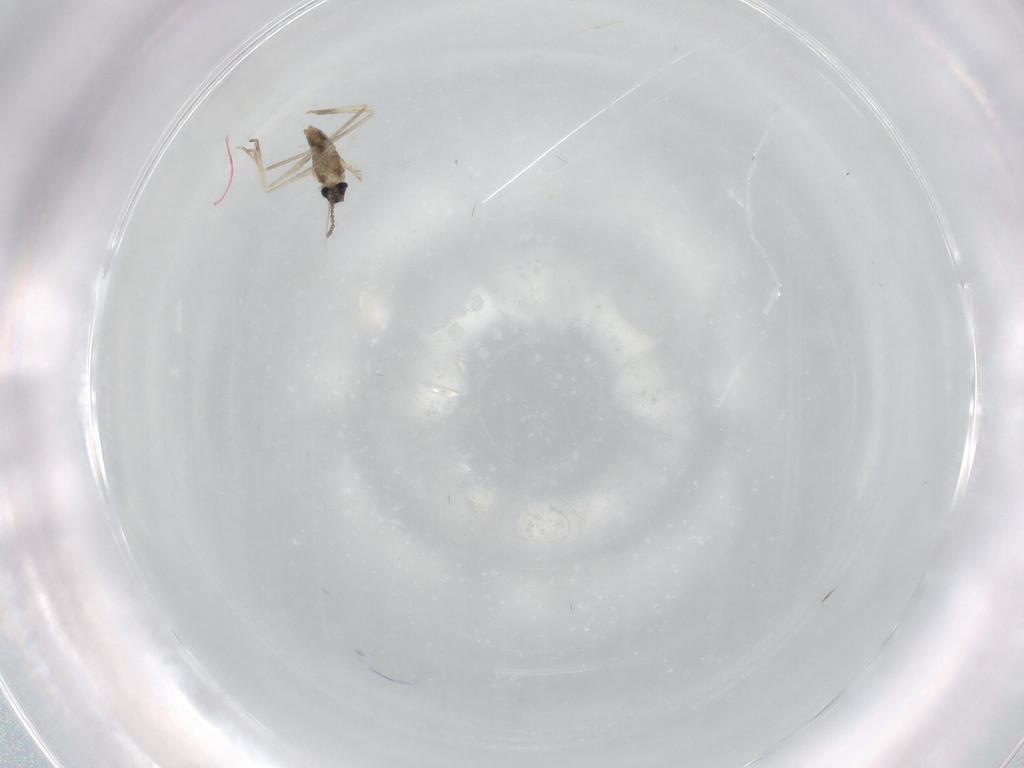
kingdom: Animalia
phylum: Arthropoda
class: Insecta
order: Diptera
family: Cecidomyiidae
